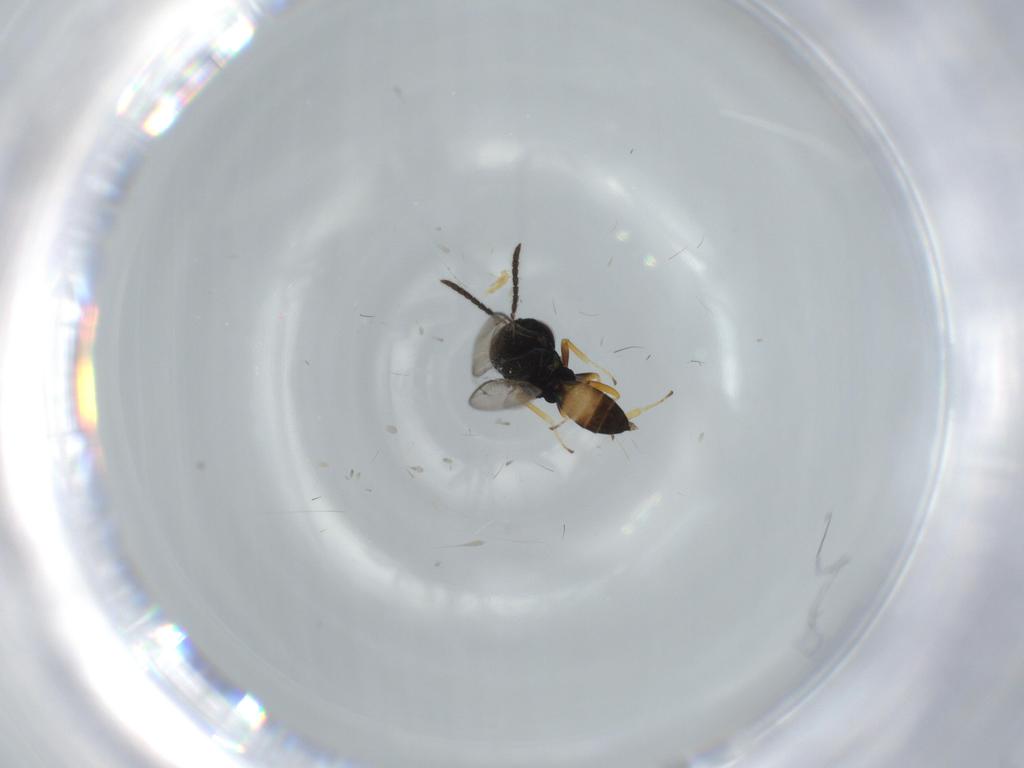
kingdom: Animalia
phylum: Arthropoda
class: Insecta
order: Hymenoptera
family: Pteromalidae
